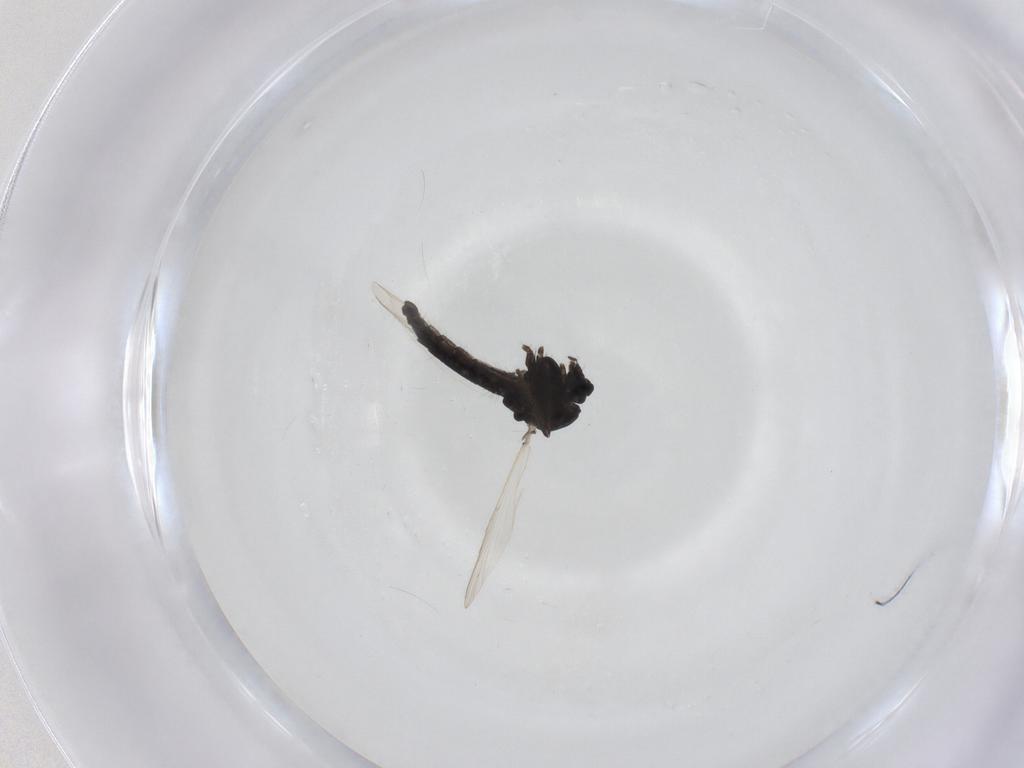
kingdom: Animalia
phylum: Arthropoda
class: Insecta
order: Diptera
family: Chironomidae
